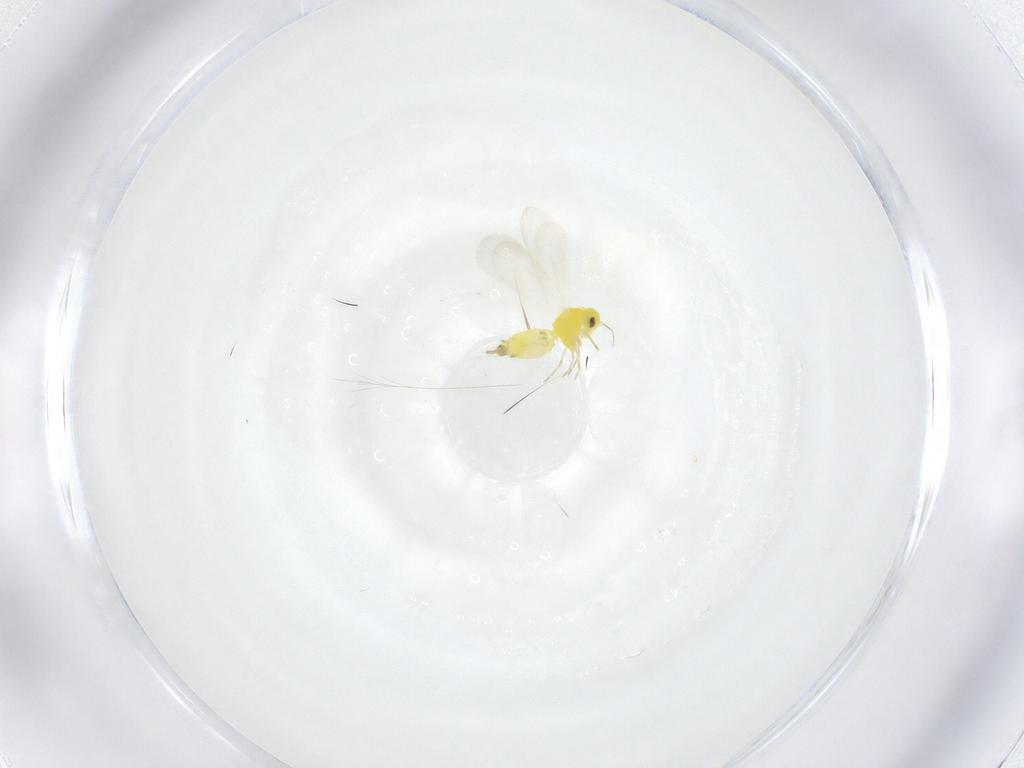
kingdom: Animalia
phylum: Arthropoda
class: Insecta
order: Hemiptera
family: Aleyrodidae
